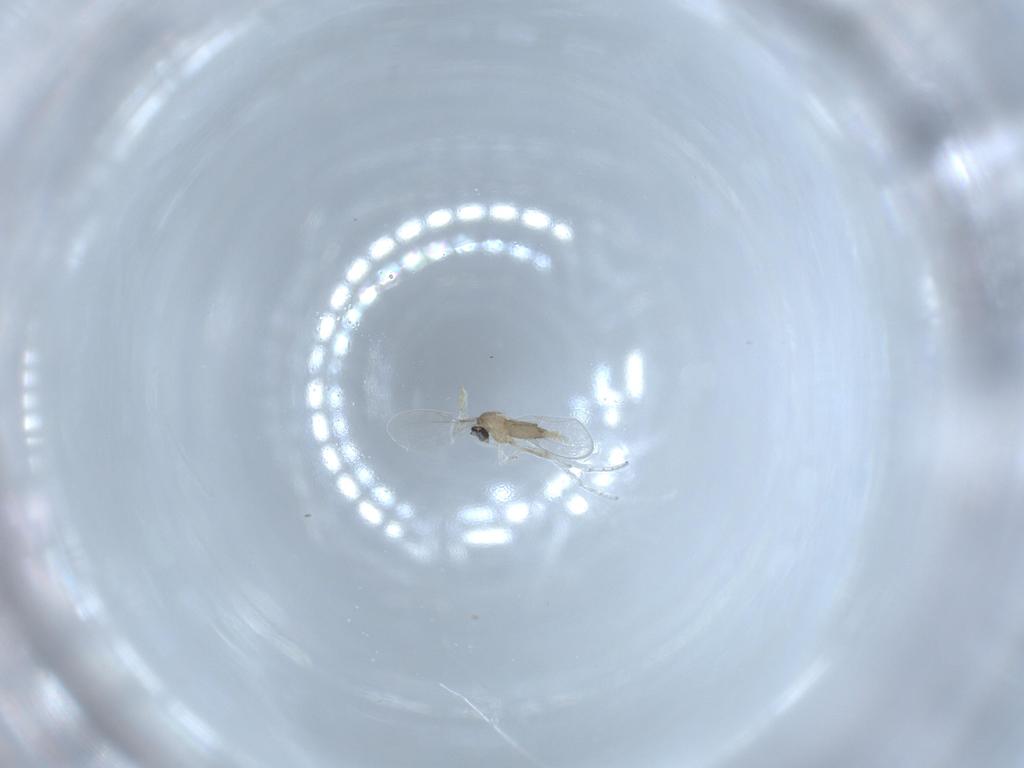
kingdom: Animalia
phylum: Arthropoda
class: Insecta
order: Diptera
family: Cecidomyiidae
